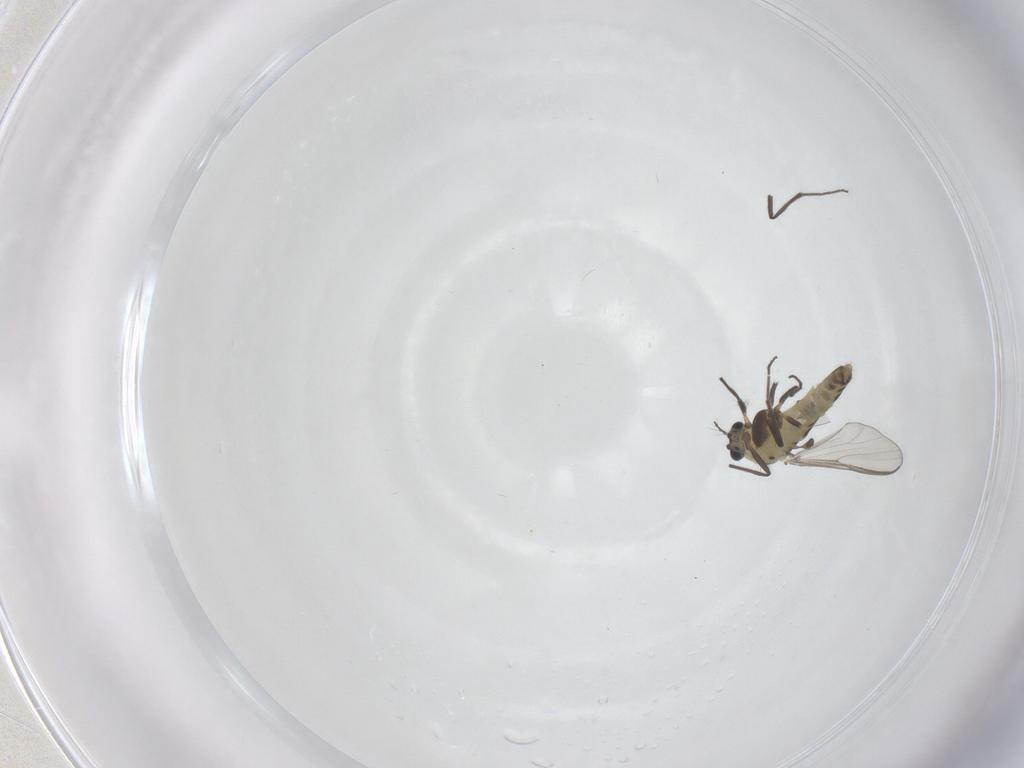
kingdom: Animalia
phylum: Arthropoda
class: Insecta
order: Diptera
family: Chironomidae
